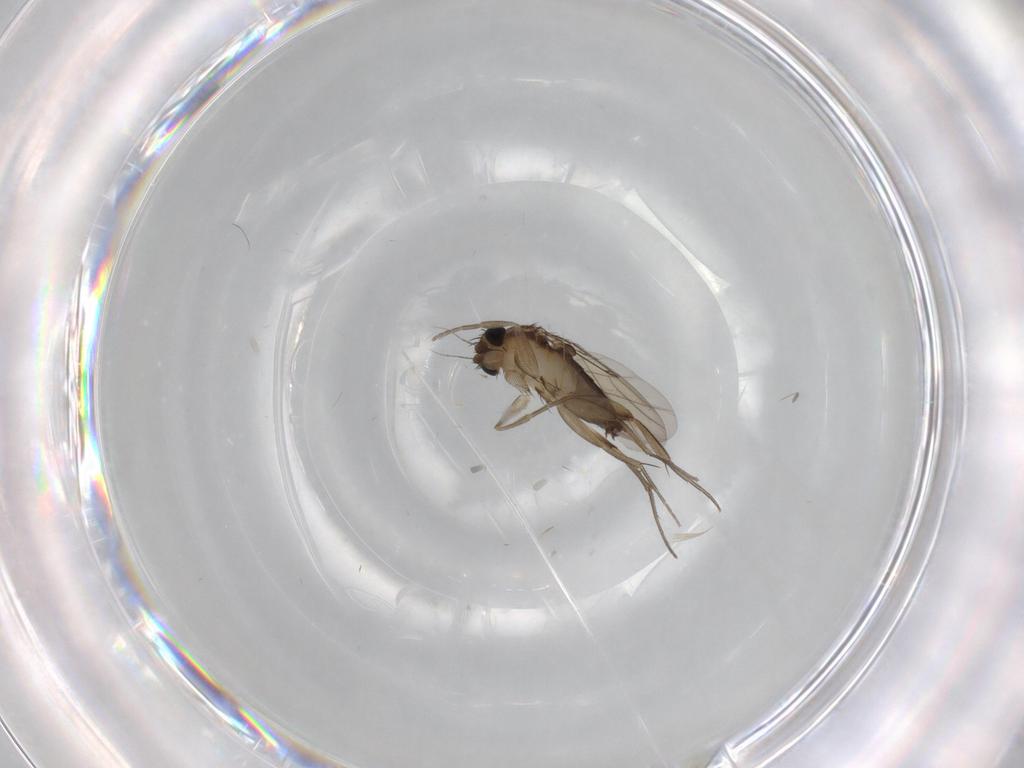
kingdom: Animalia
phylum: Arthropoda
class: Insecta
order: Diptera
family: Phoridae
